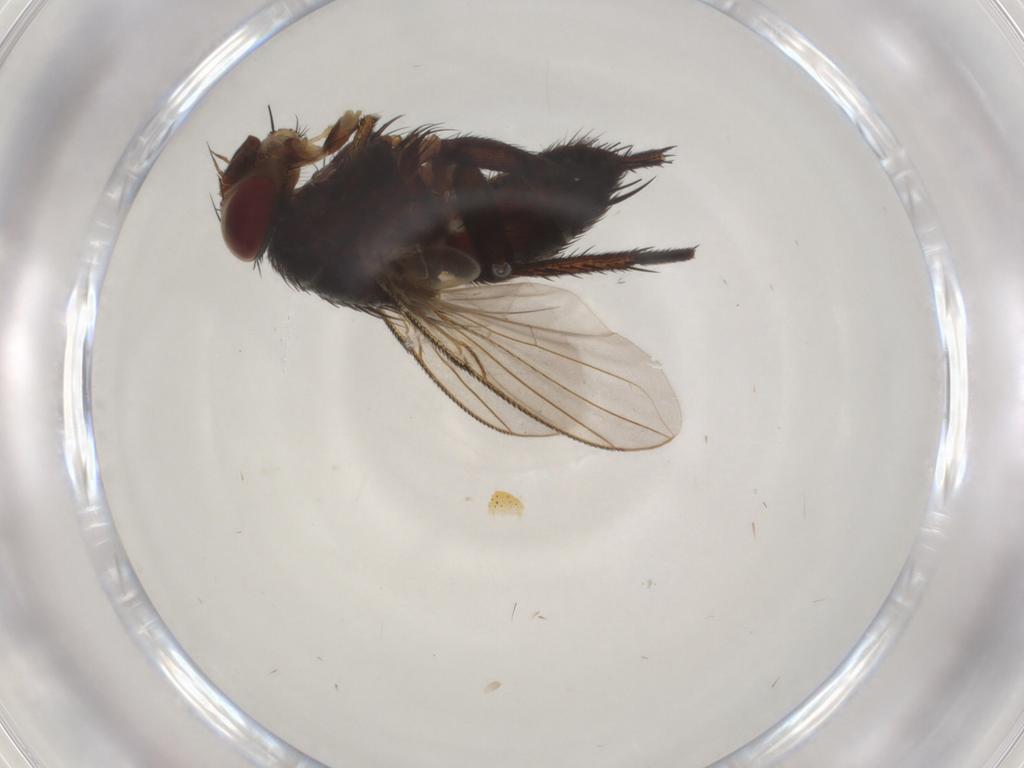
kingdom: Animalia
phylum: Arthropoda
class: Insecta
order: Diptera
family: Tachinidae
